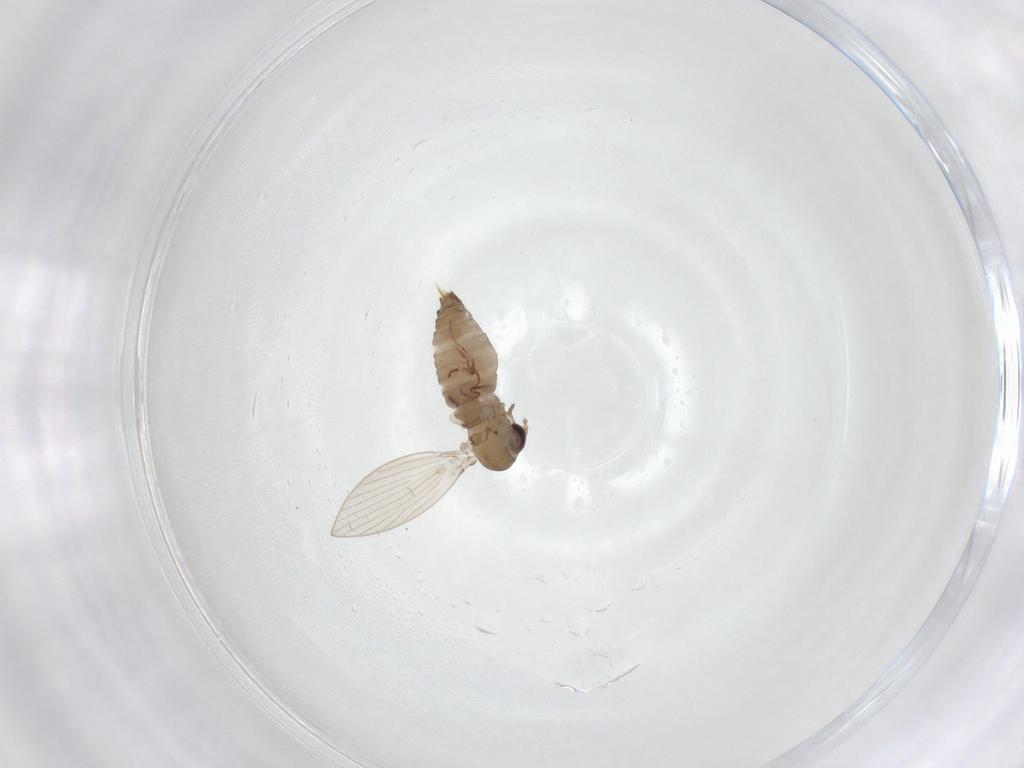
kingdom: Animalia
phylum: Arthropoda
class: Insecta
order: Diptera
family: Psychodidae
